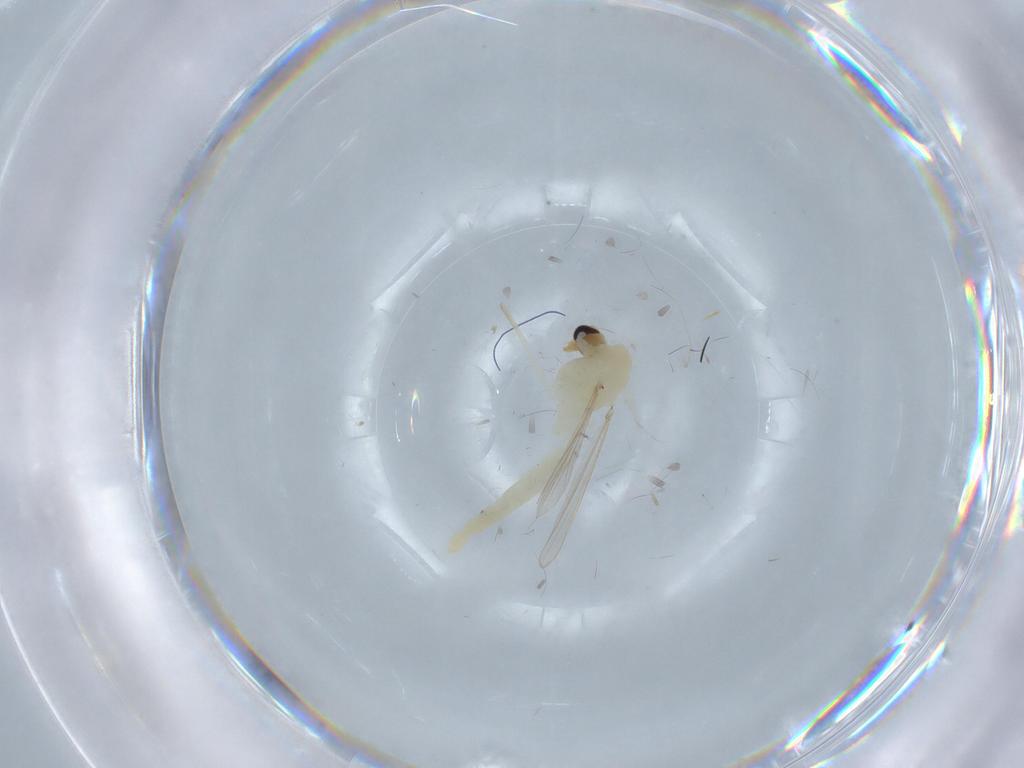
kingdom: Animalia
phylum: Arthropoda
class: Insecta
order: Diptera
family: Chironomidae
